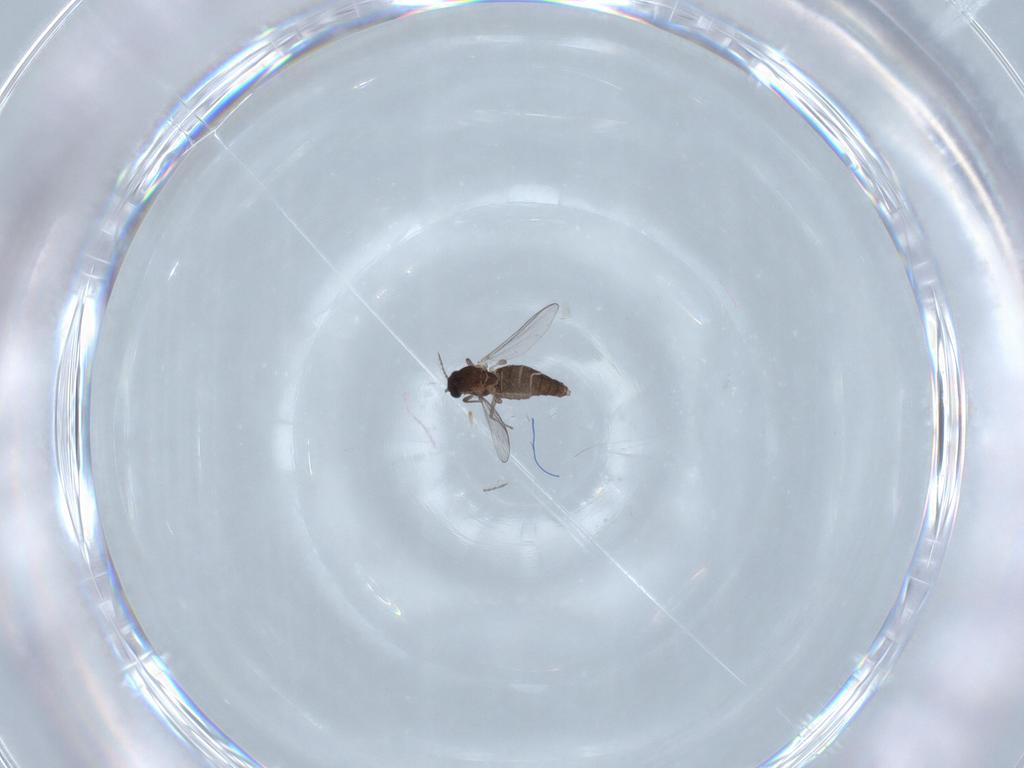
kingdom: Animalia
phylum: Arthropoda
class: Insecta
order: Diptera
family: Chironomidae
